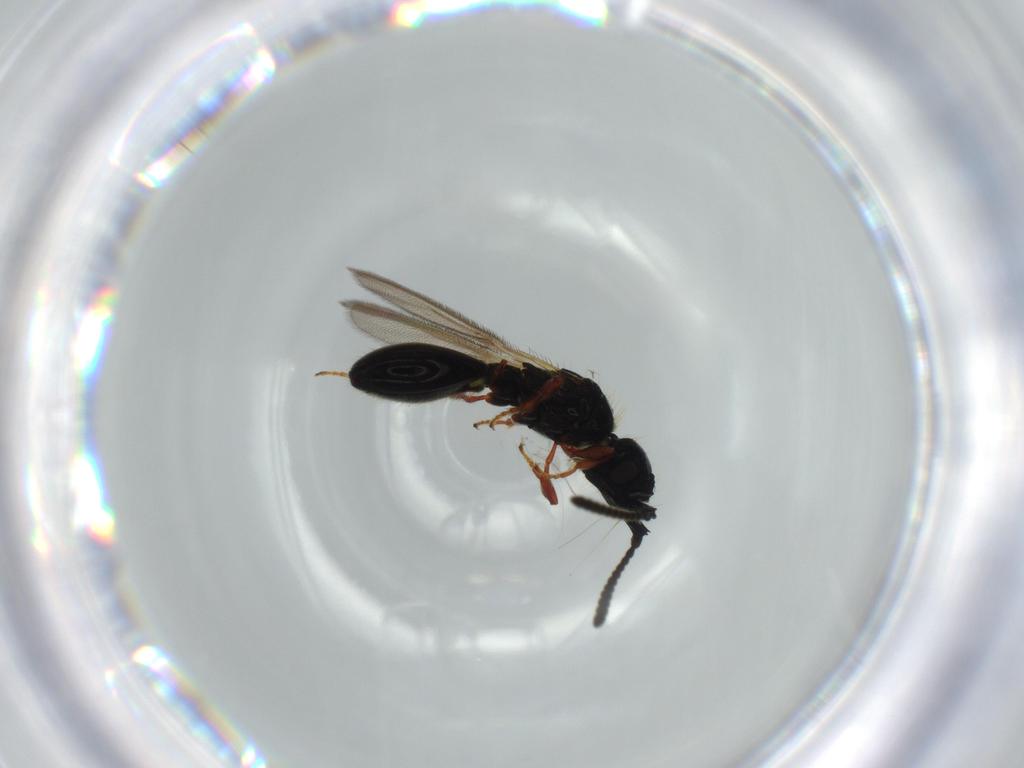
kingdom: Animalia
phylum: Arthropoda
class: Insecta
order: Hymenoptera
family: Diapriidae
